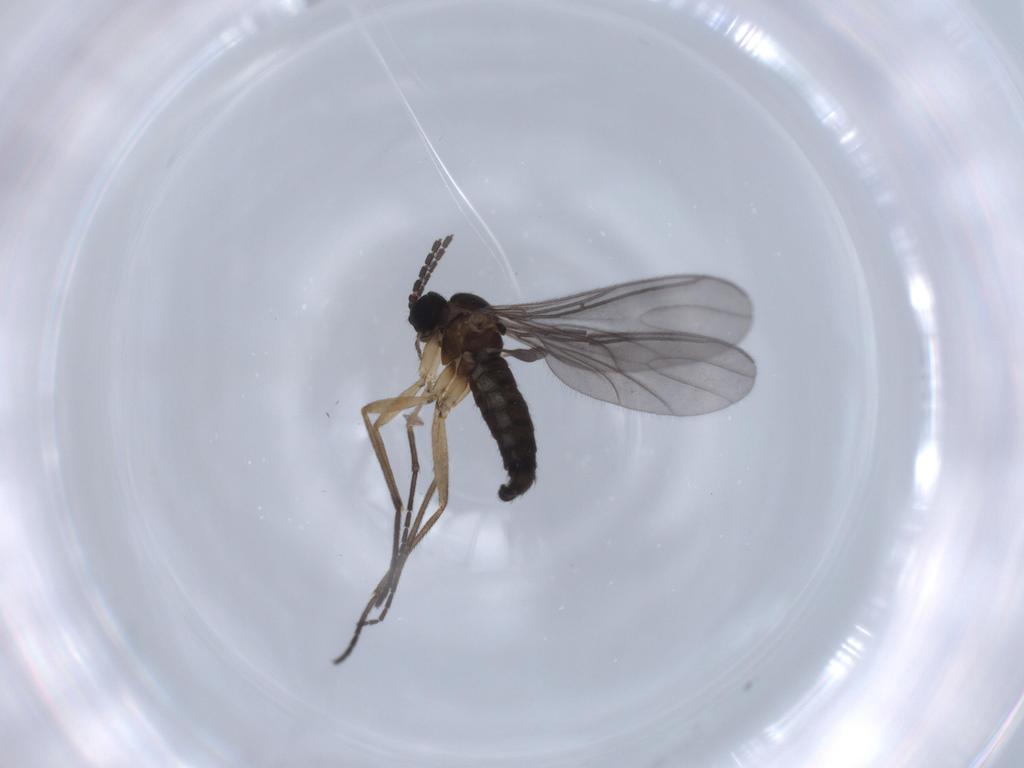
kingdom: Animalia
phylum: Arthropoda
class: Insecta
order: Diptera
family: Sciaridae
